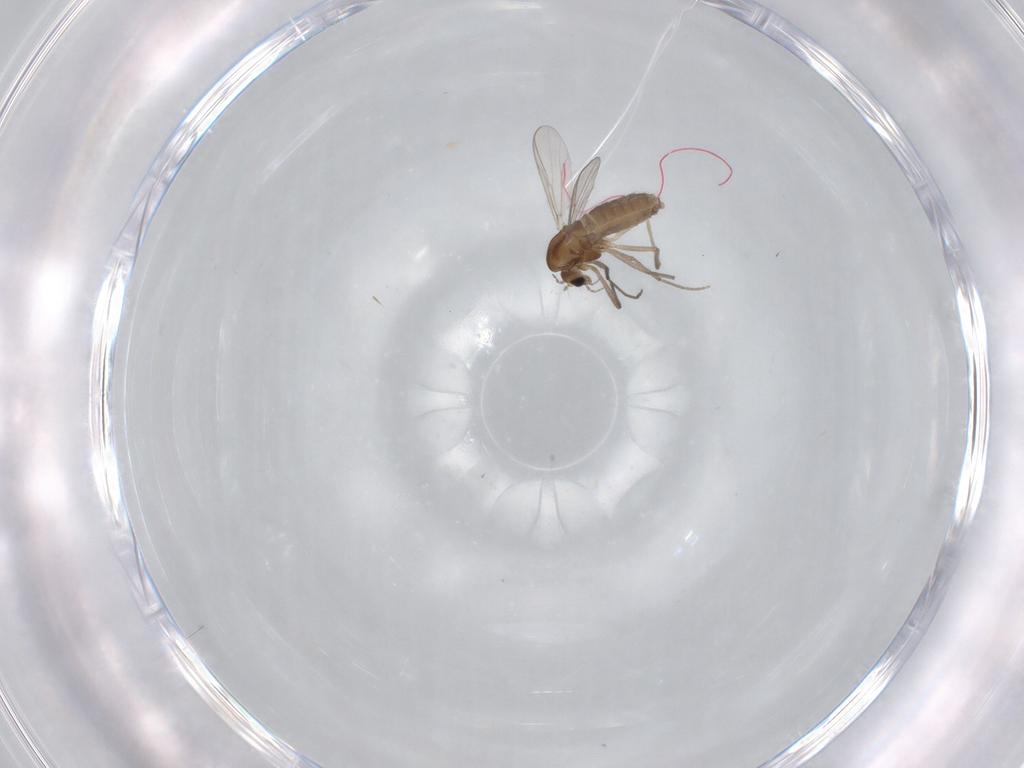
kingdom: Animalia
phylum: Arthropoda
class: Insecta
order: Diptera
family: Chironomidae
